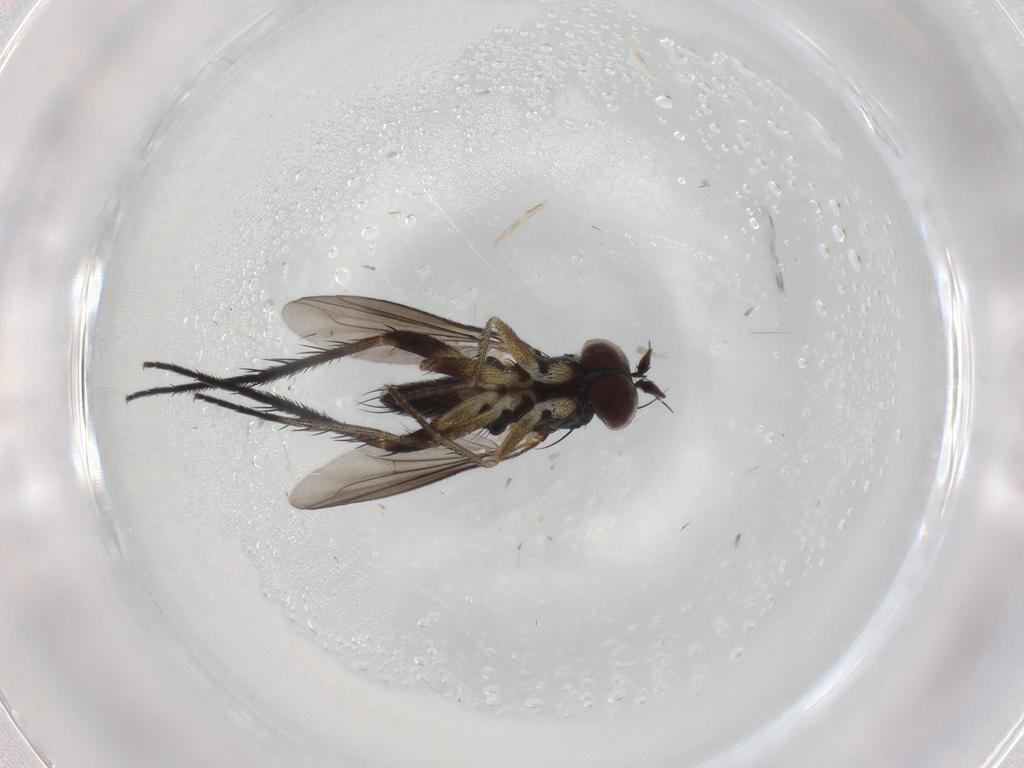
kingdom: Animalia
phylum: Arthropoda
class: Insecta
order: Diptera
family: Dolichopodidae
